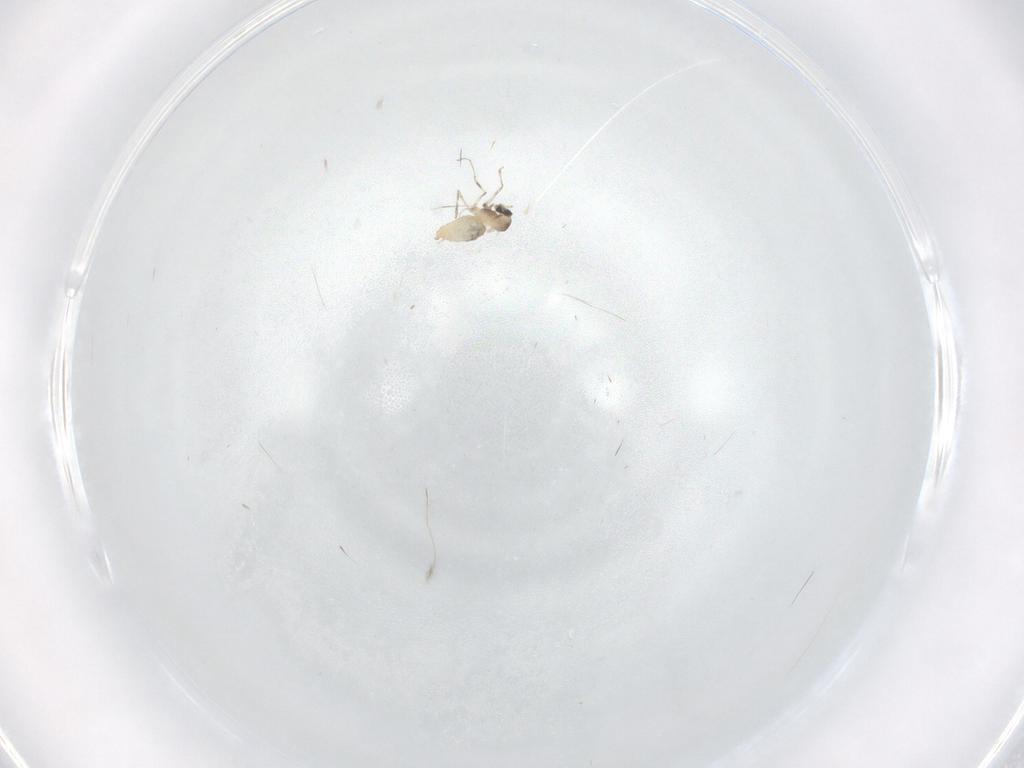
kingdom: Animalia
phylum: Arthropoda
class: Insecta
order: Diptera
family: Cecidomyiidae
